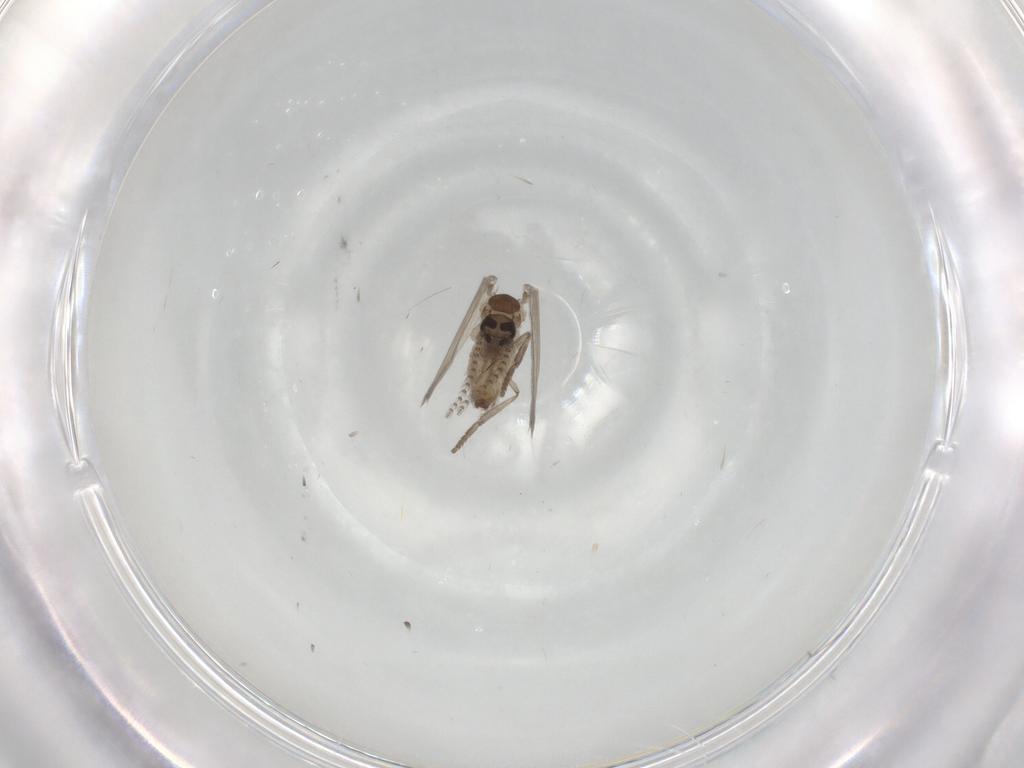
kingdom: Animalia
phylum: Arthropoda
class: Insecta
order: Diptera
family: Psychodidae
